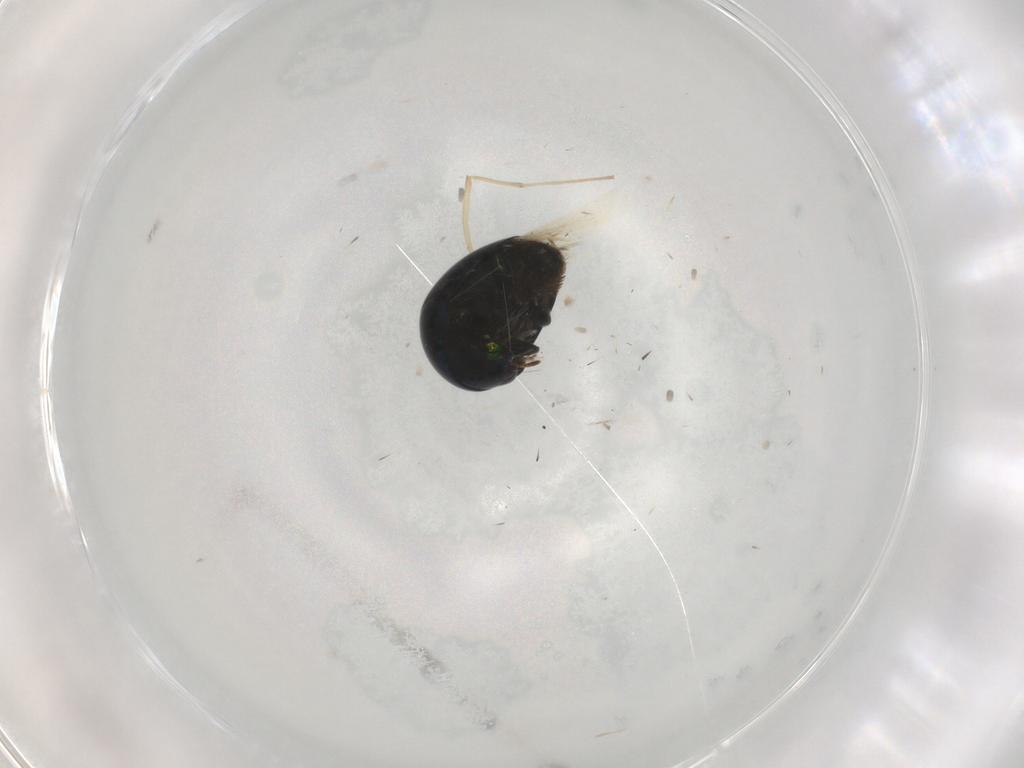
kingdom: Animalia
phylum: Arthropoda
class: Insecta
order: Coleoptera
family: Cybocephalidae
